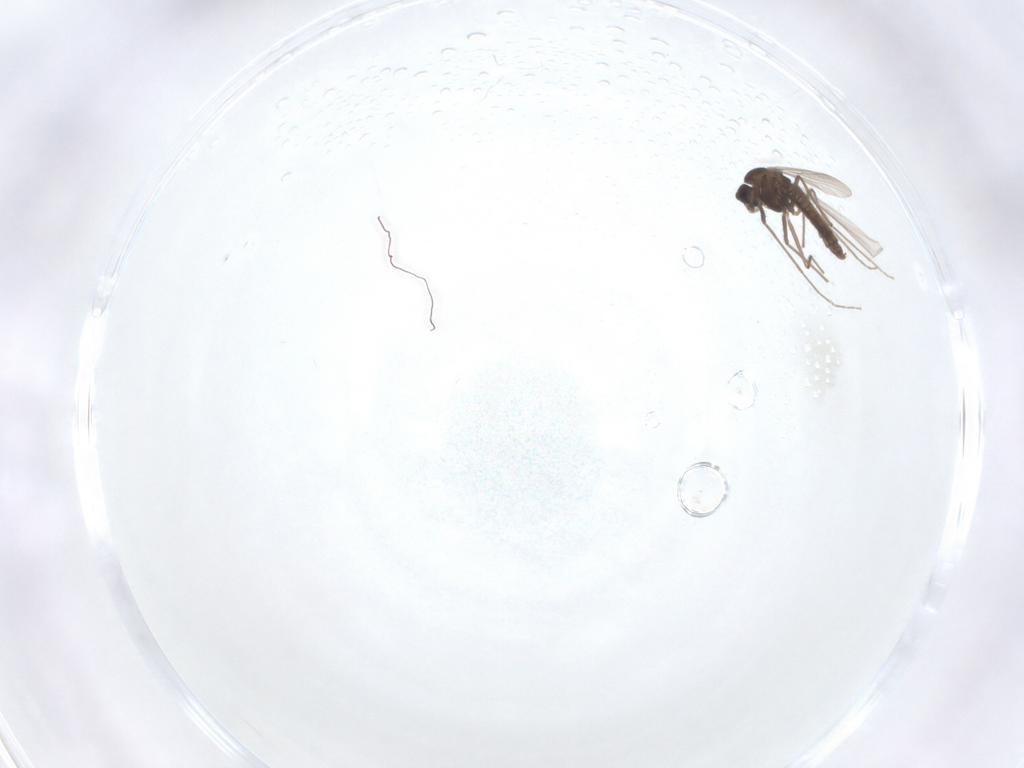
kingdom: Animalia
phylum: Arthropoda
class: Insecta
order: Diptera
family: Chironomidae
